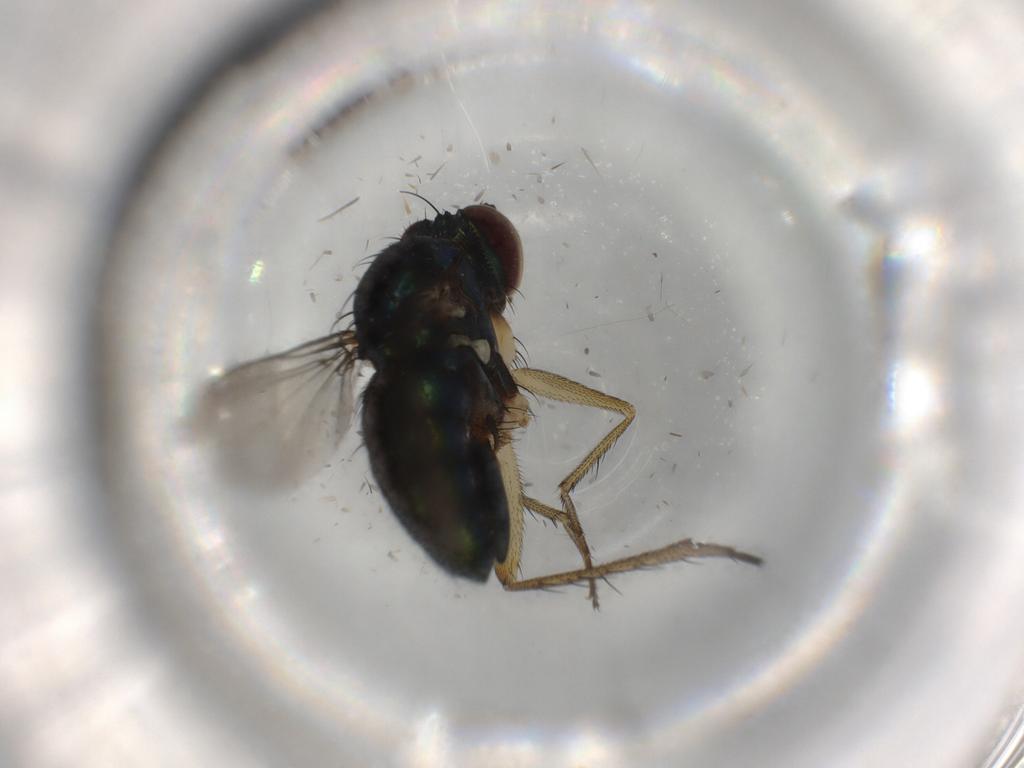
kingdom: Animalia
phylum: Arthropoda
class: Insecta
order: Diptera
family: Dolichopodidae
